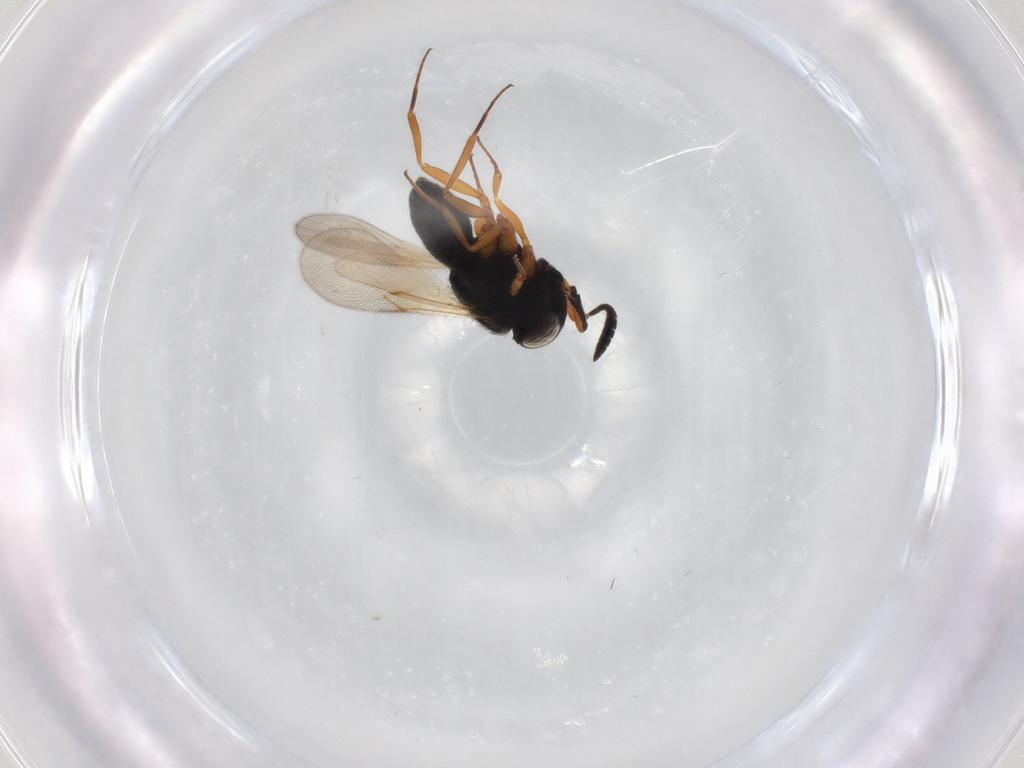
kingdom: Animalia
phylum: Arthropoda
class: Insecta
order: Hymenoptera
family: Scelionidae
